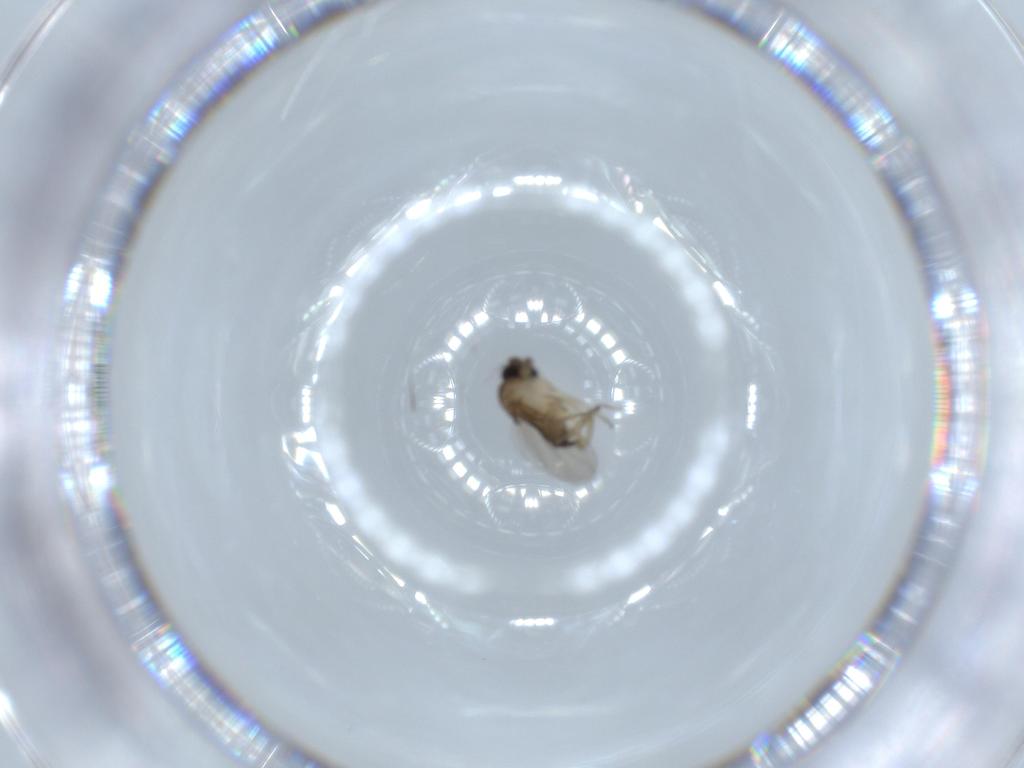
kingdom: Animalia
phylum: Arthropoda
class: Insecta
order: Diptera
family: Phoridae
